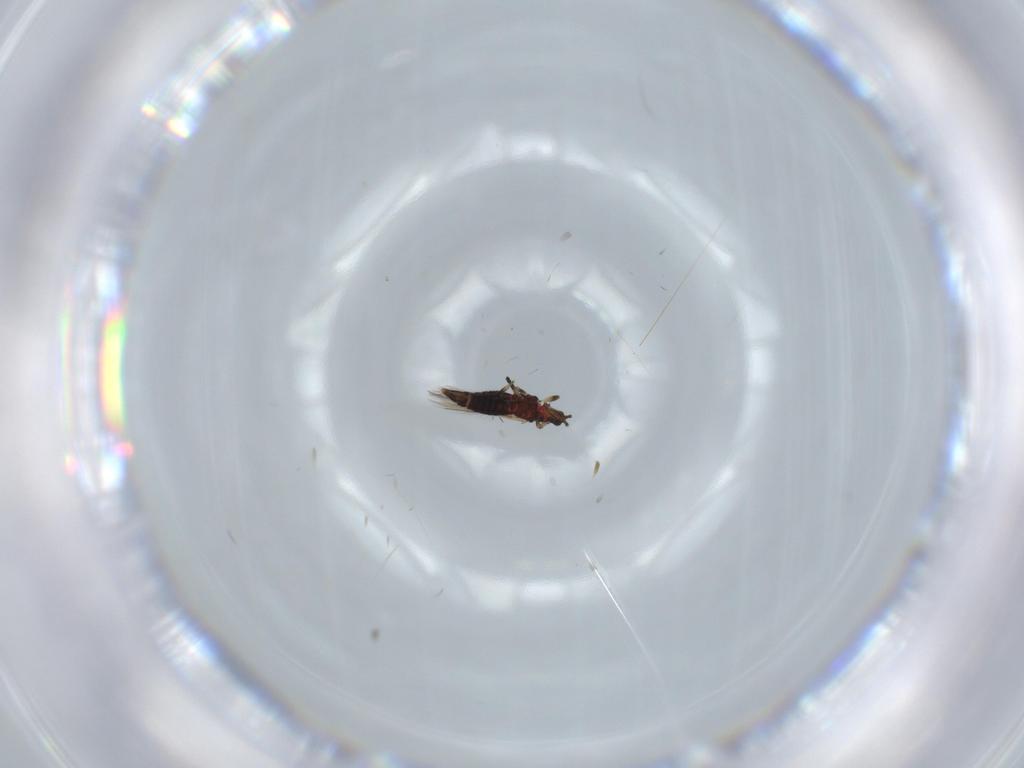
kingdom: Animalia
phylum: Arthropoda
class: Insecta
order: Thysanoptera
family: Thripidae
